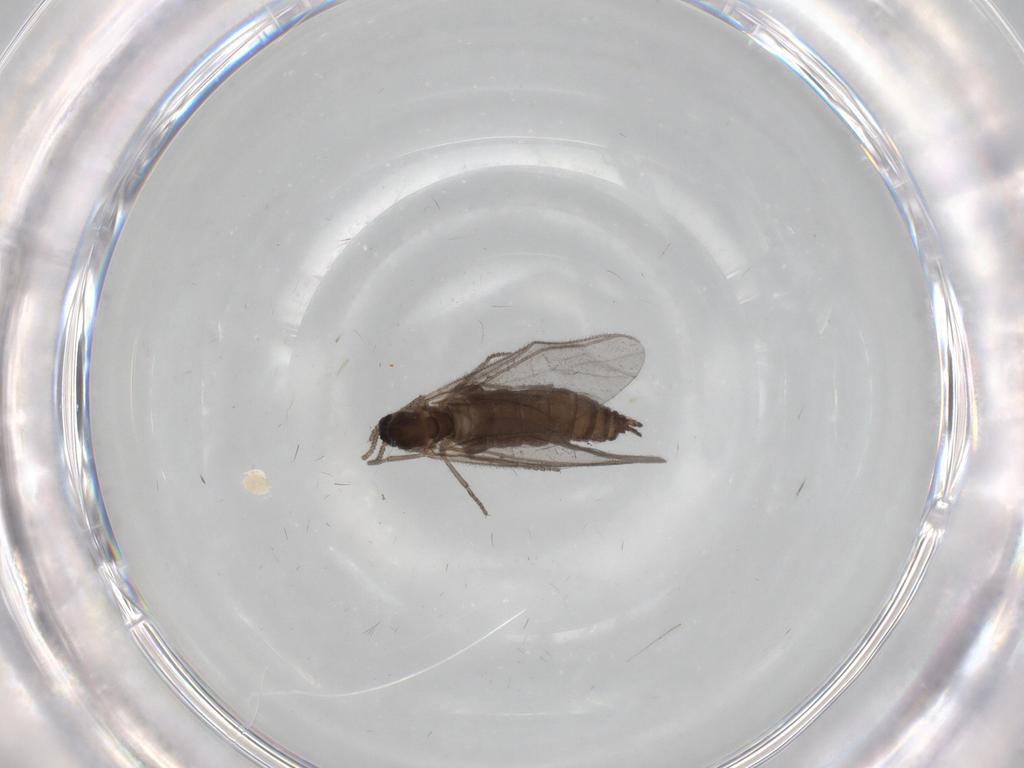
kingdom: Animalia
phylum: Arthropoda
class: Insecta
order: Diptera
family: Sciaridae
